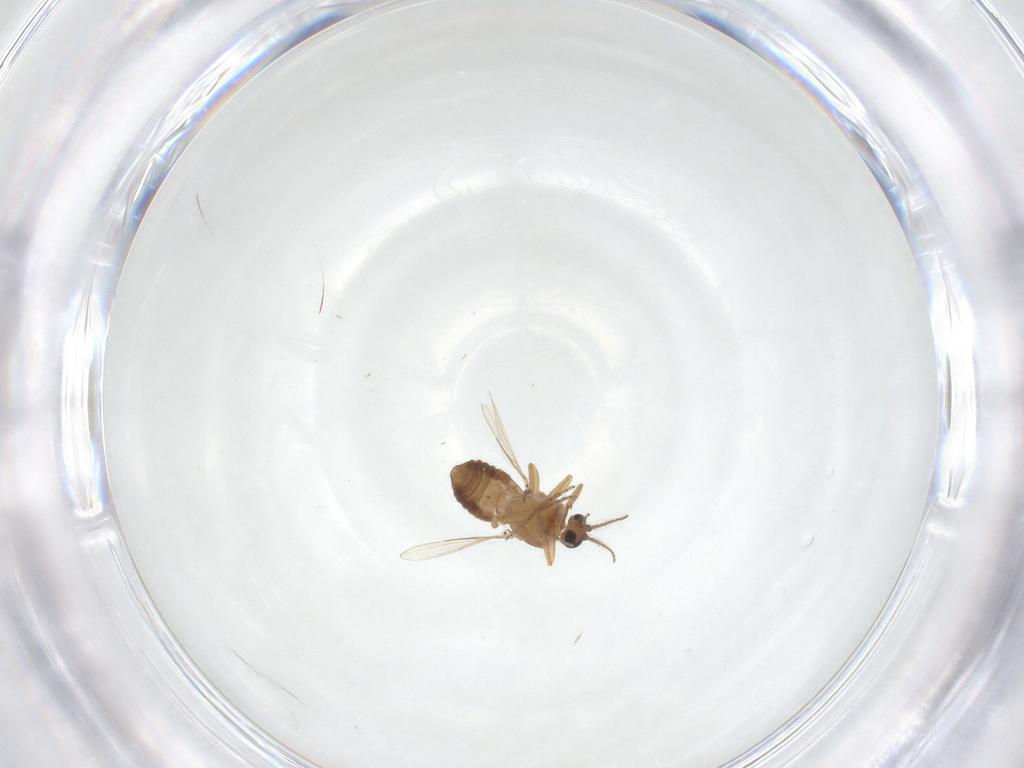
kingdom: Animalia
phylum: Arthropoda
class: Insecta
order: Diptera
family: Ceratopogonidae
